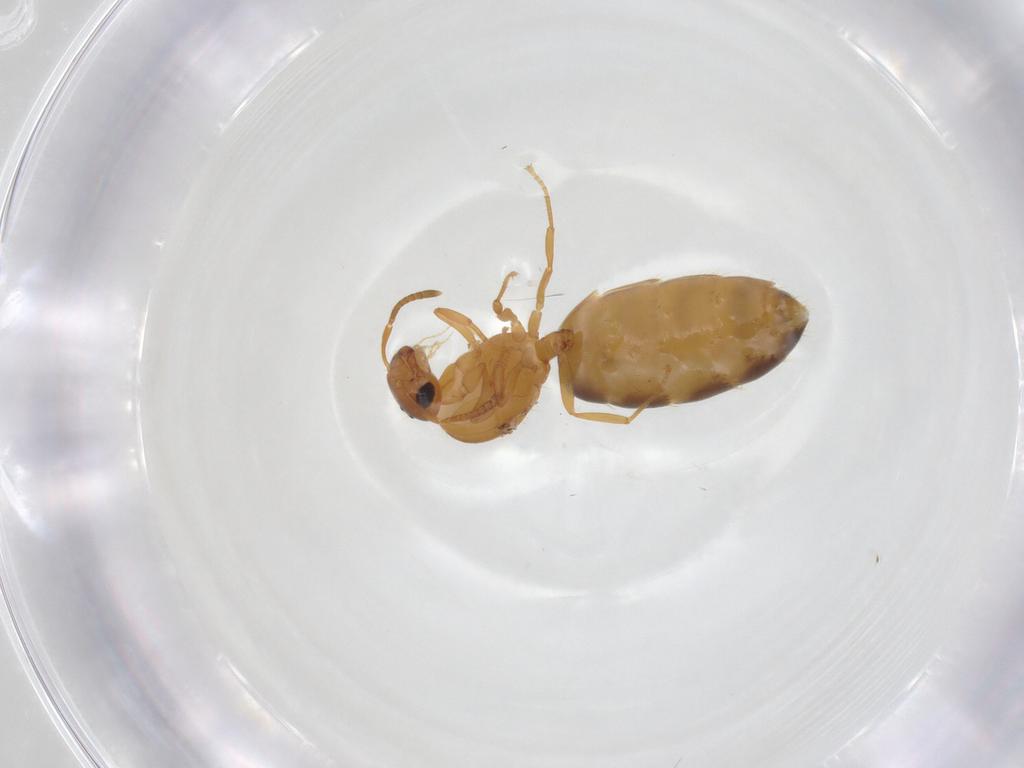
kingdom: Animalia
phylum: Arthropoda
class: Insecta
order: Hymenoptera
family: Formicidae
